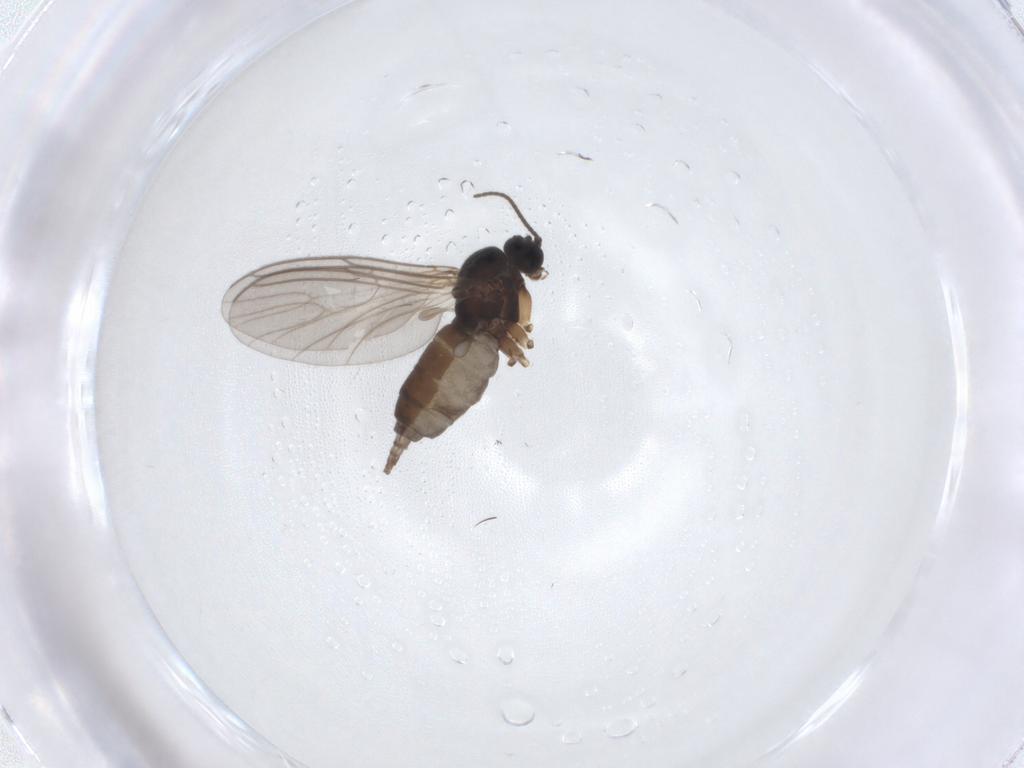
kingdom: Animalia
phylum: Arthropoda
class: Insecta
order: Diptera
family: Sciaridae
